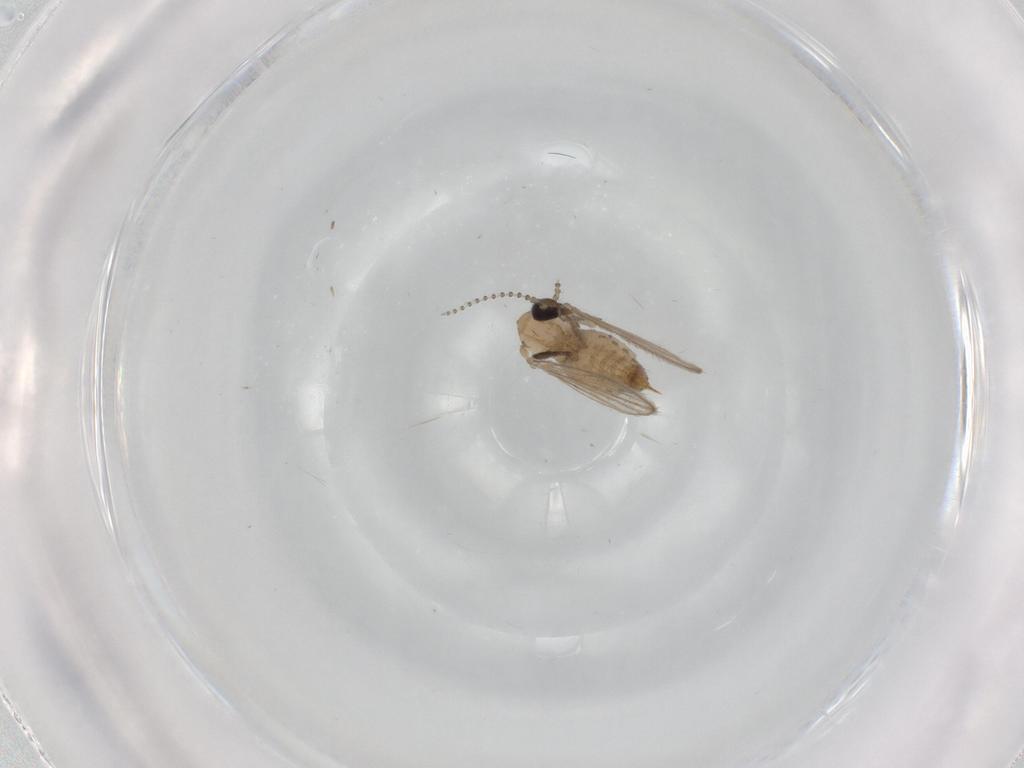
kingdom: Animalia
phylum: Arthropoda
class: Insecta
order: Diptera
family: Psychodidae
